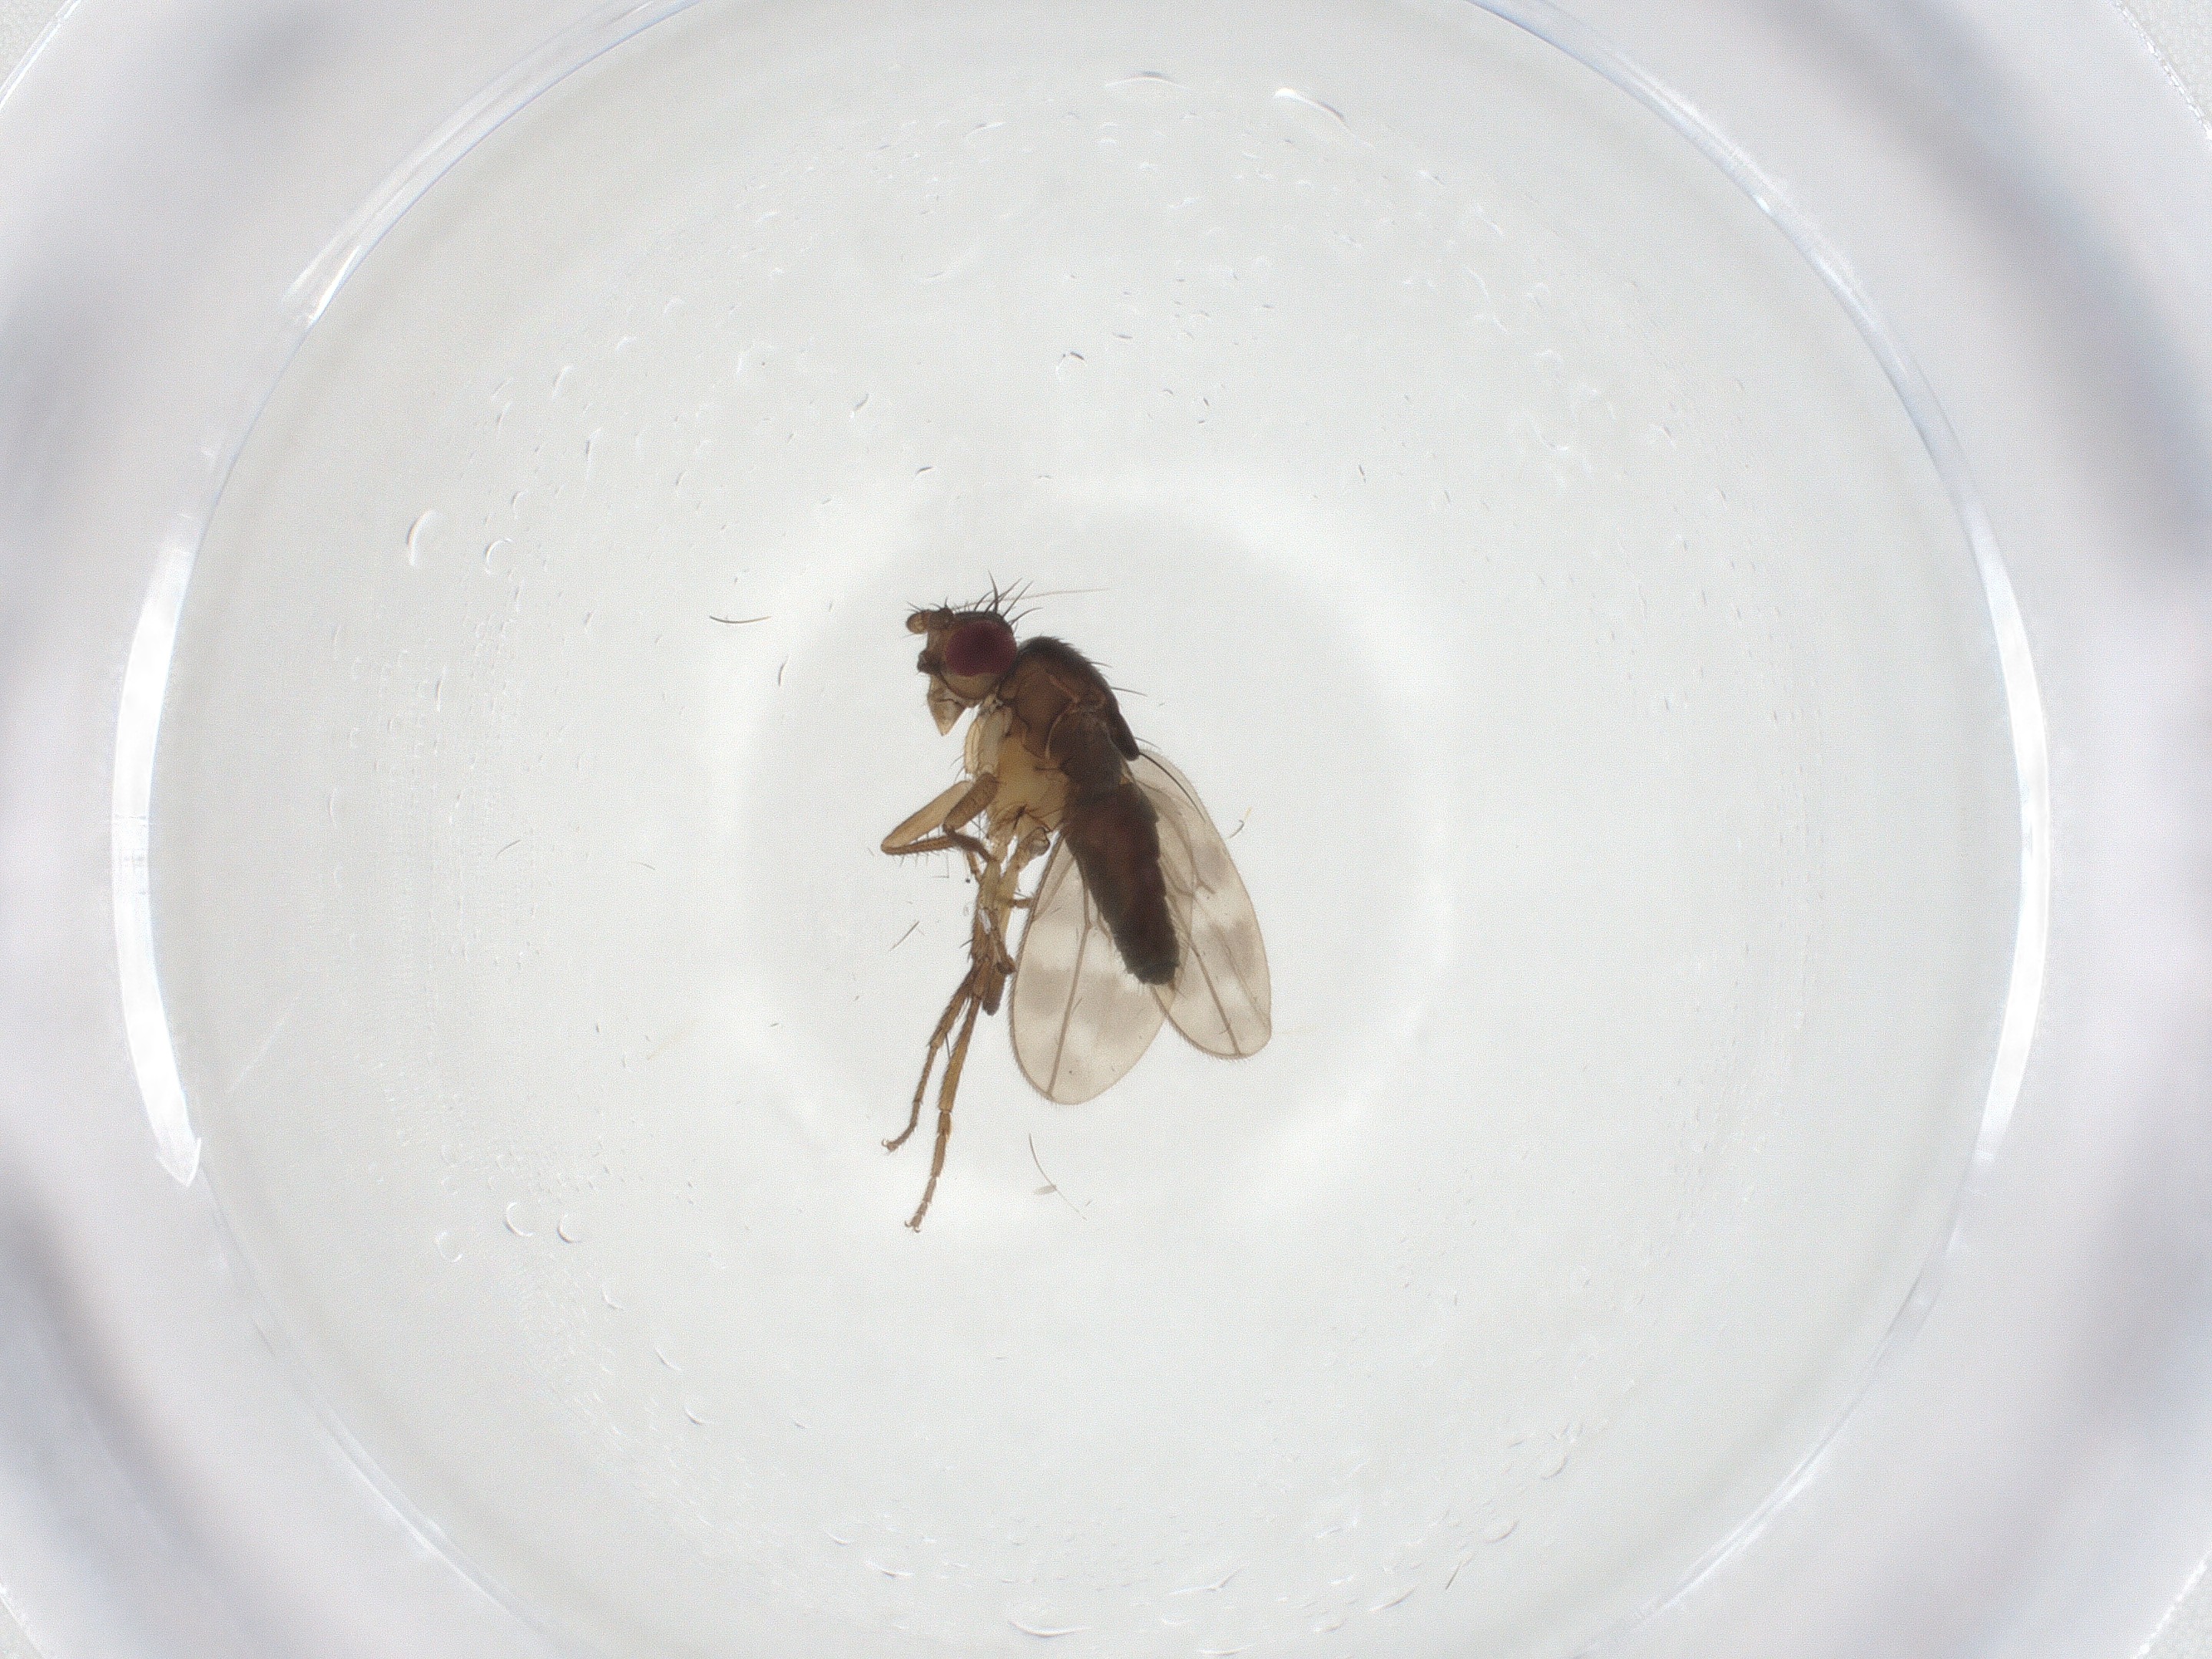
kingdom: Animalia
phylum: Arthropoda
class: Insecta
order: Diptera
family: Sphaeroceridae
